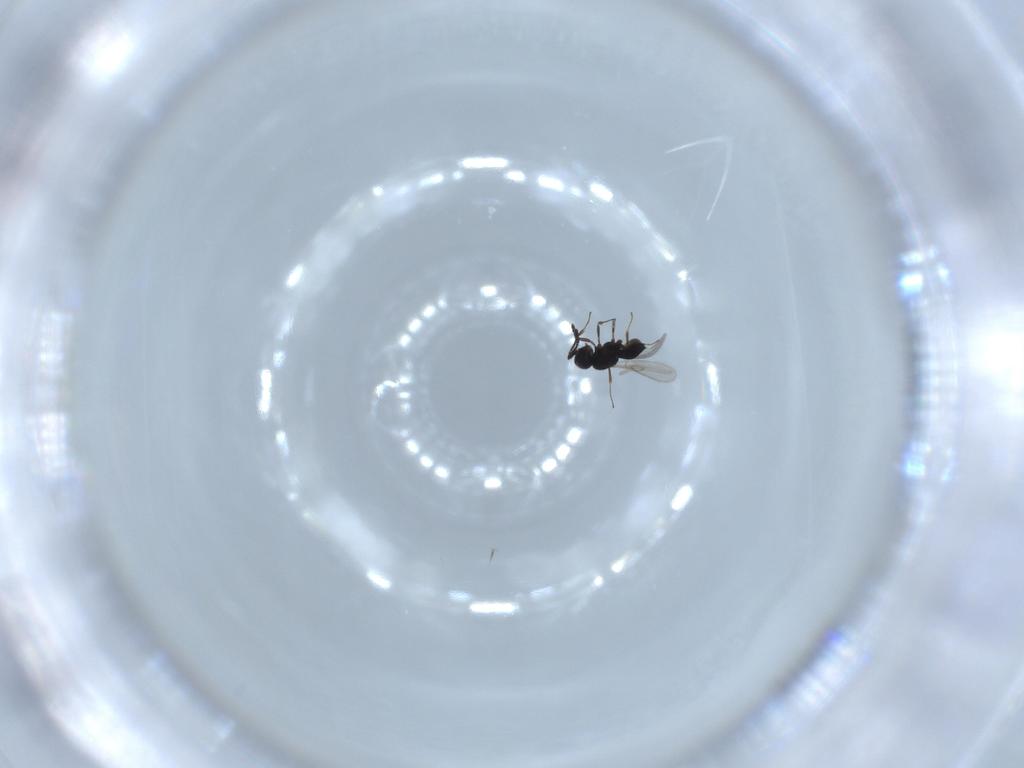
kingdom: Animalia
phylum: Arthropoda
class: Insecta
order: Hymenoptera
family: Scelionidae
